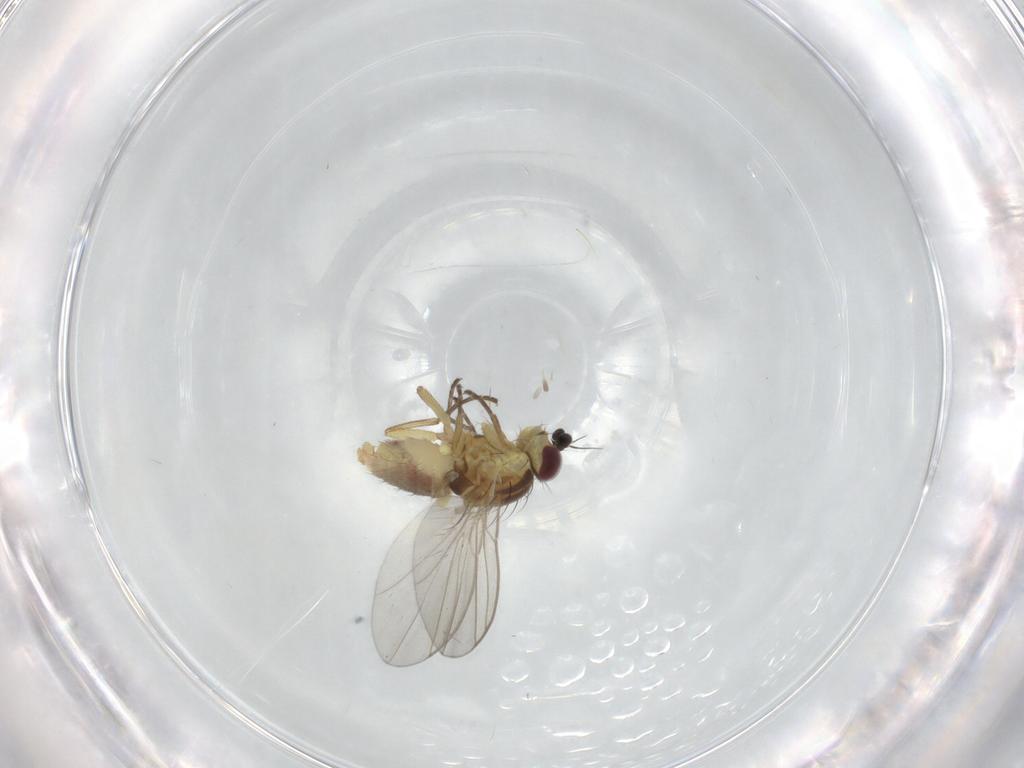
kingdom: Animalia
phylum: Arthropoda
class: Insecta
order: Diptera
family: Agromyzidae
